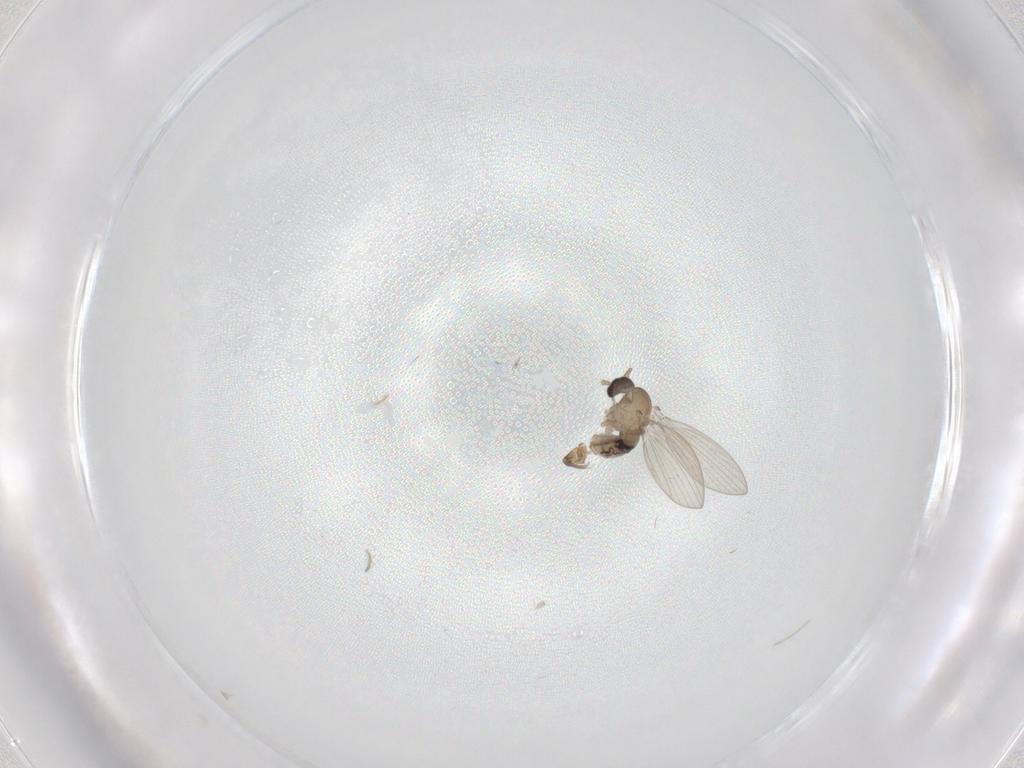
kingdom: Animalia
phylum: Arthropoda
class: Insecta
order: Diptera
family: Psychodidae
